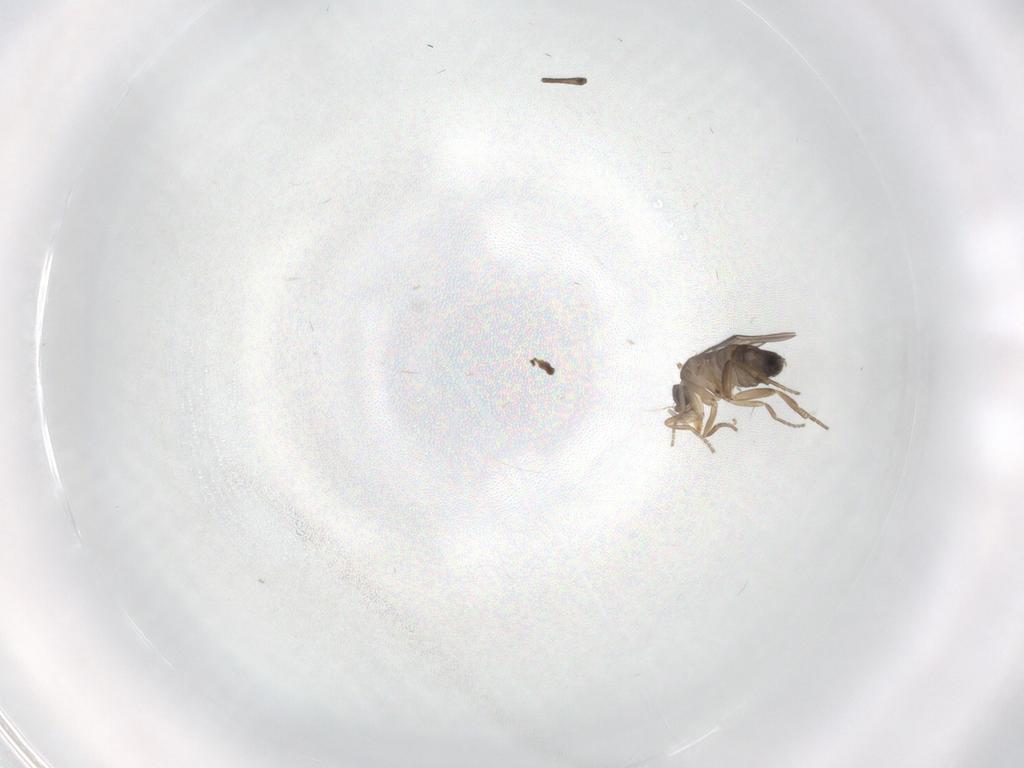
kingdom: Animalia
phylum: Arthropoda
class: Insecta
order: Diptera
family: Phoridae
